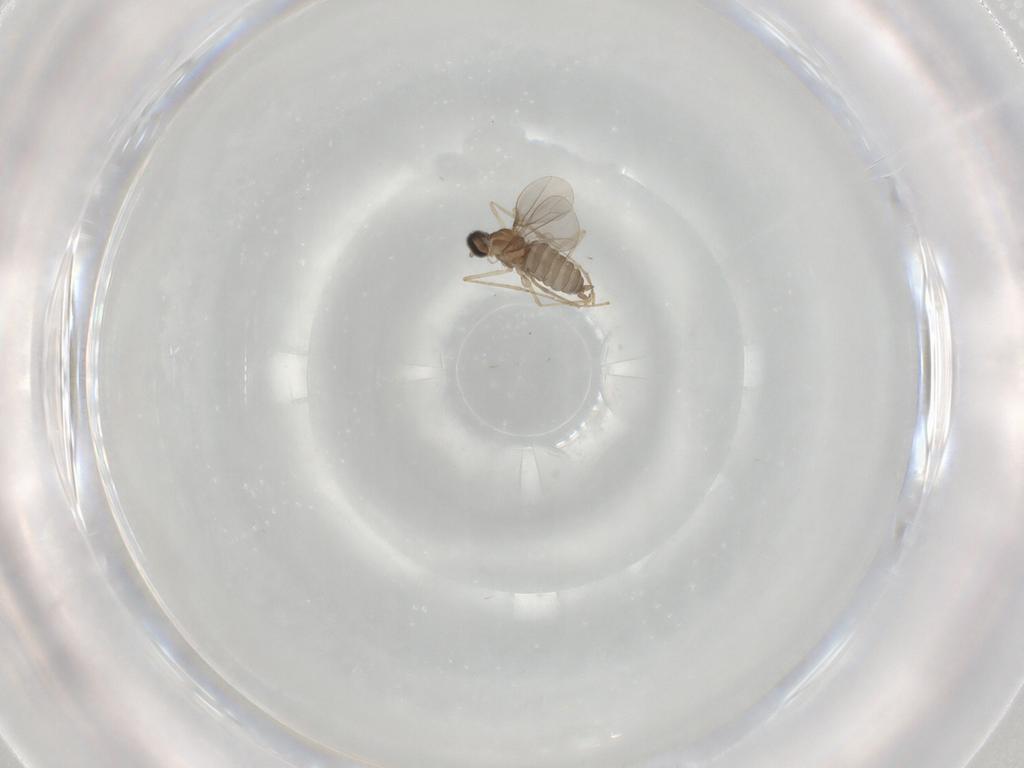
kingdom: Animalia
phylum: Arthropoda
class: Insecta
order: Diptera
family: Cecidomyiidae
